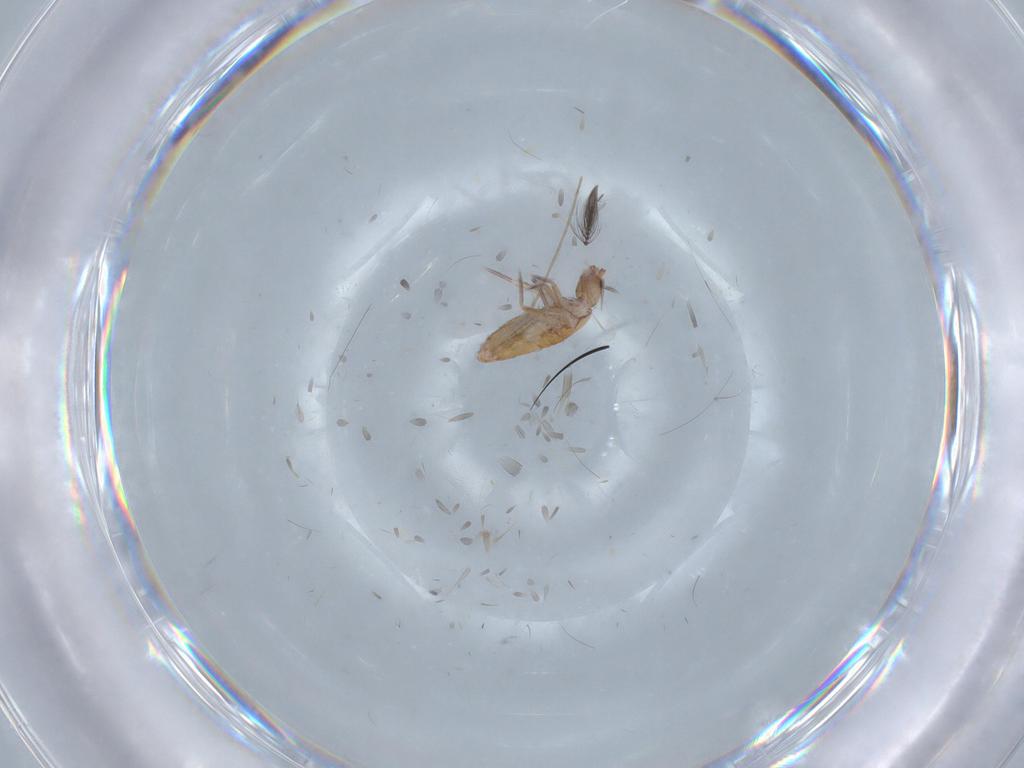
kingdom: Animalia
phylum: Arthropoda
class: Collembola
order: Entomobryomorpha
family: Entomobryidae
